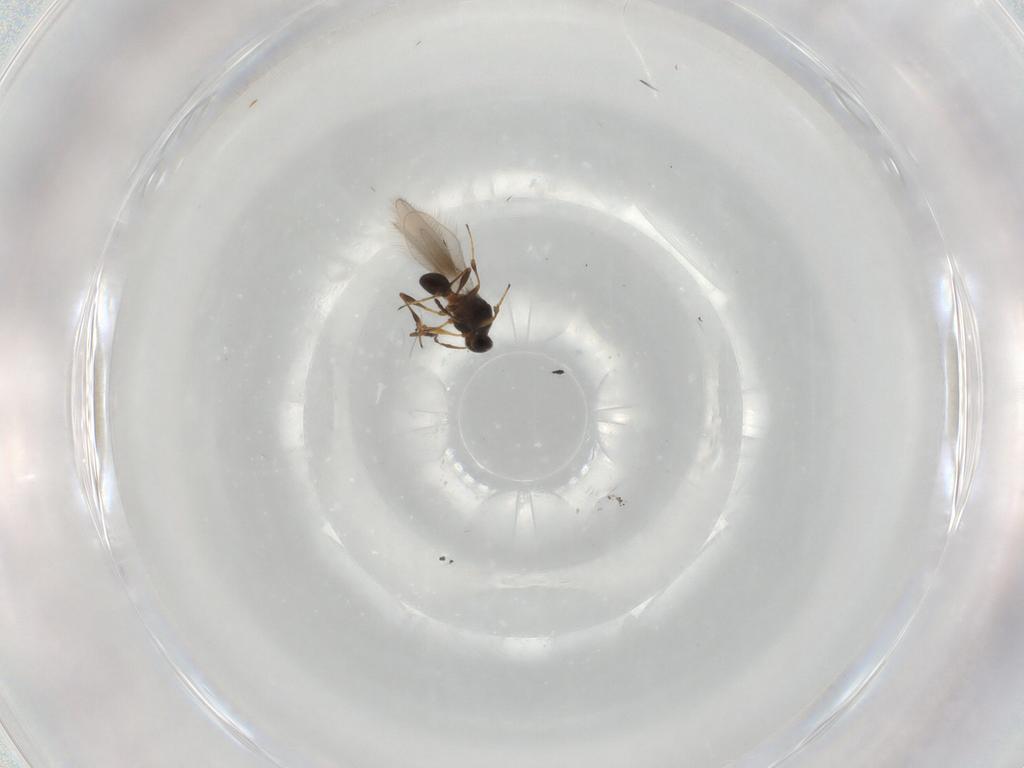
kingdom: Animalia
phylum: Arthropoda
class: Insecta
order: Hymenoptera
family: Platygastridae
